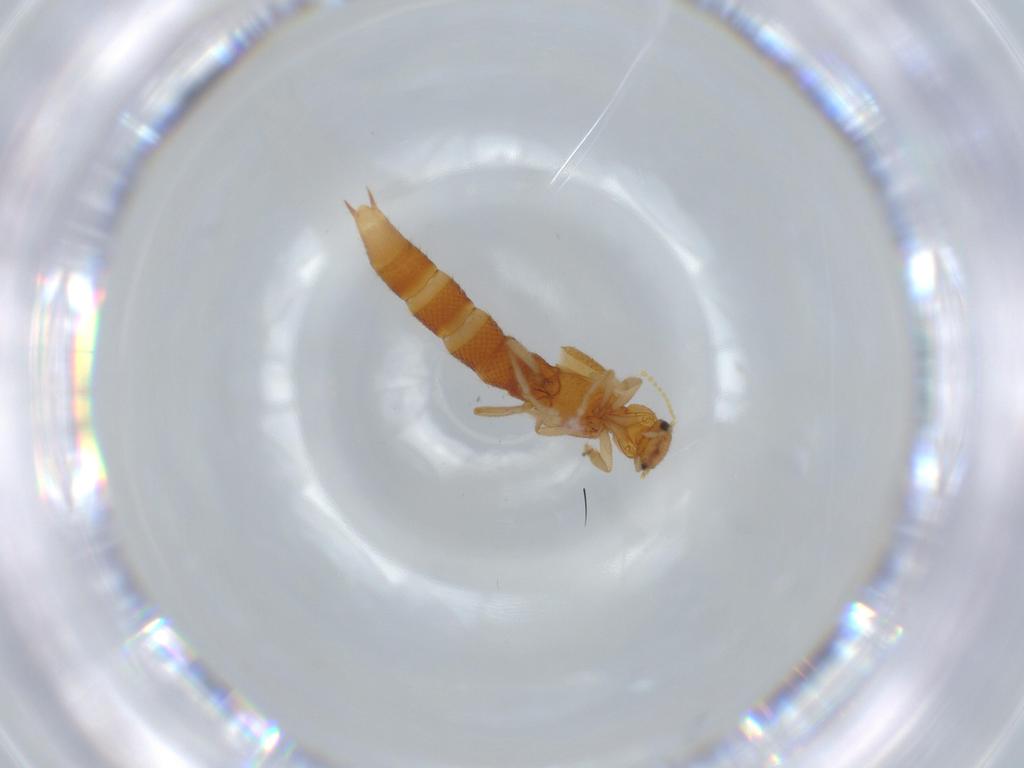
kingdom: Animalia
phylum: Arthropoda
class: Insecta
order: Coleoptera
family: Staphylinidae
